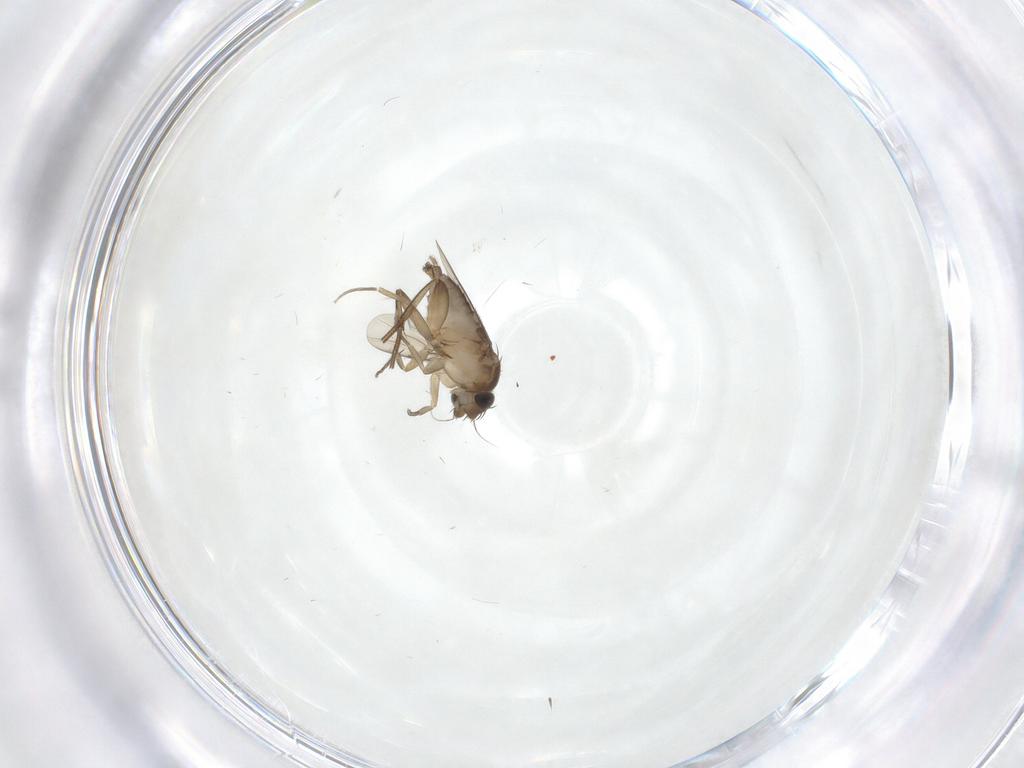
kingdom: Animalia
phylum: Arthropoda
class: Insecta
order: Diptera
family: Phoridae
